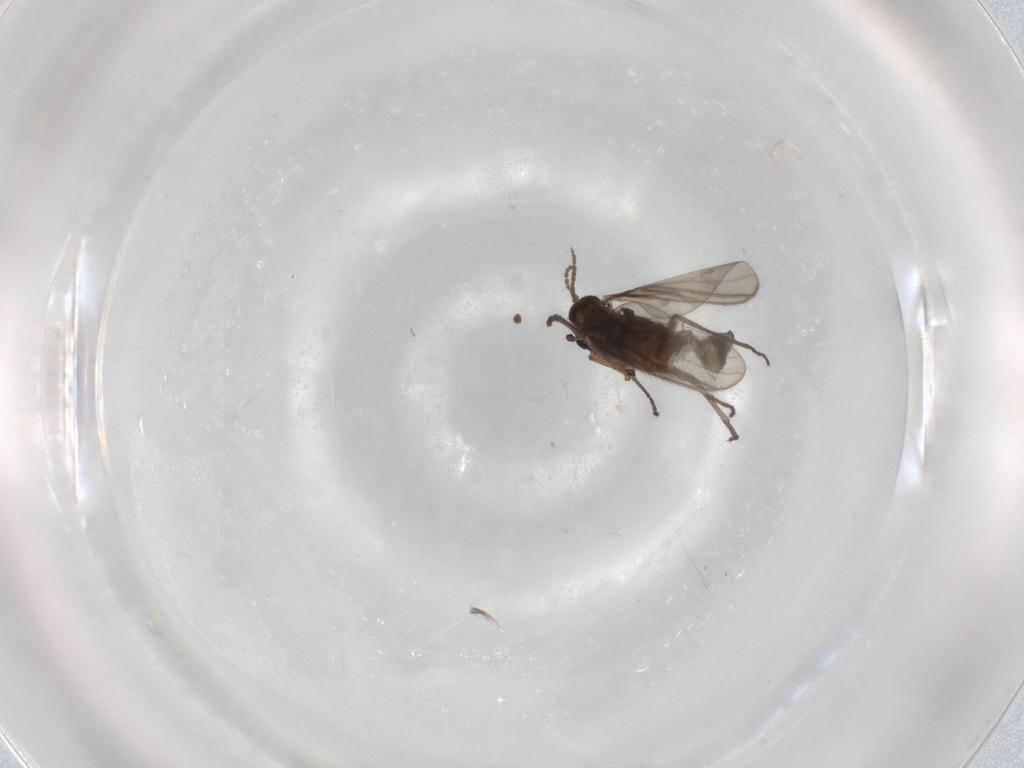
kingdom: Animalia
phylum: Arthropoda
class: Insecta
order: Diptera
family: Sciaridae
